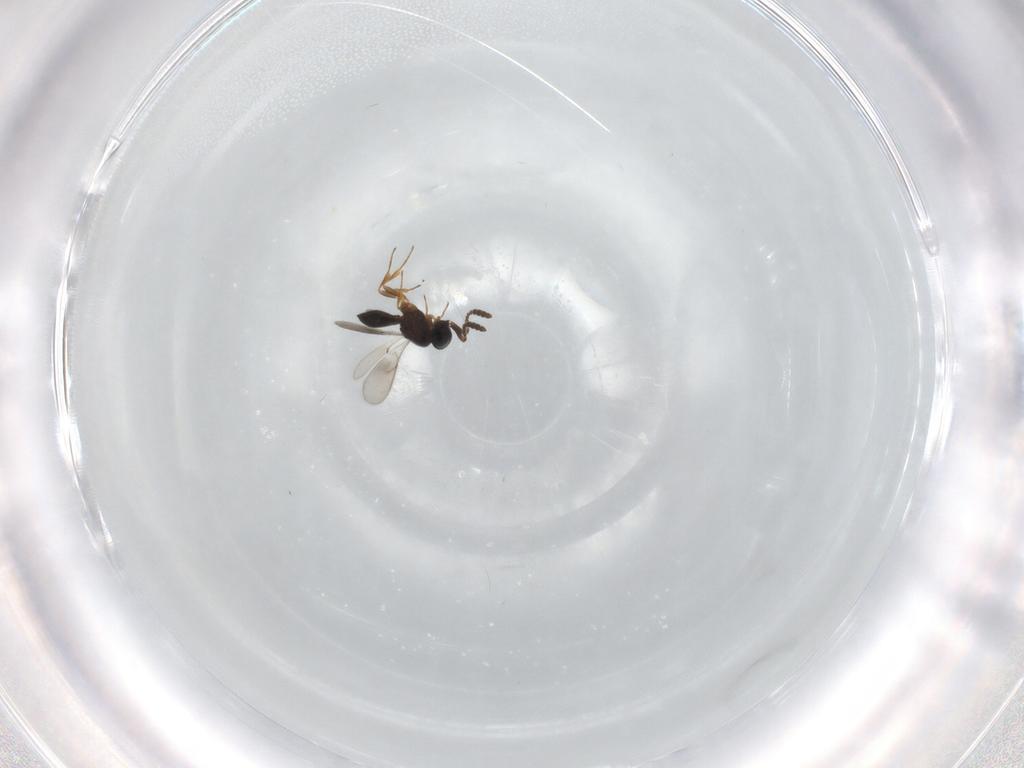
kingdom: Animalia
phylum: Arthropoda
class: Insecta
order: Hymenoptera
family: Scelionidae
